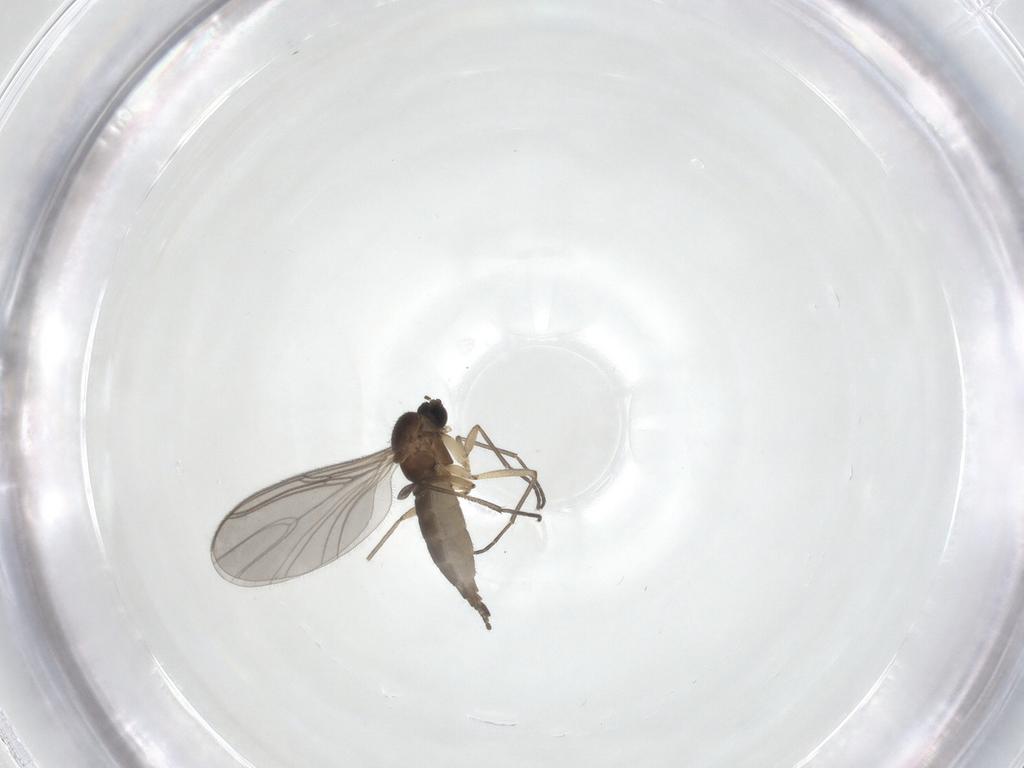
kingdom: Animalia
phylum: Arthropoda
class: Insecta
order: Diptera
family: Sciaridae
